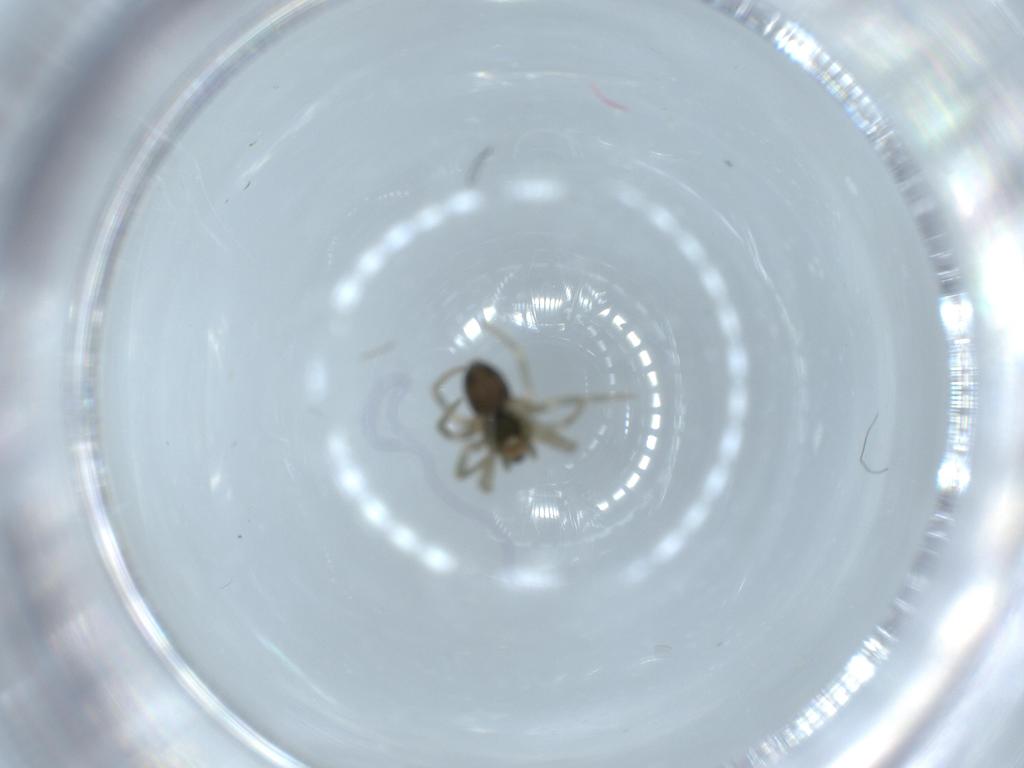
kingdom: Animalia
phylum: Arthropoda
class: Arachnida
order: Araneae
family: Linyphiidae
